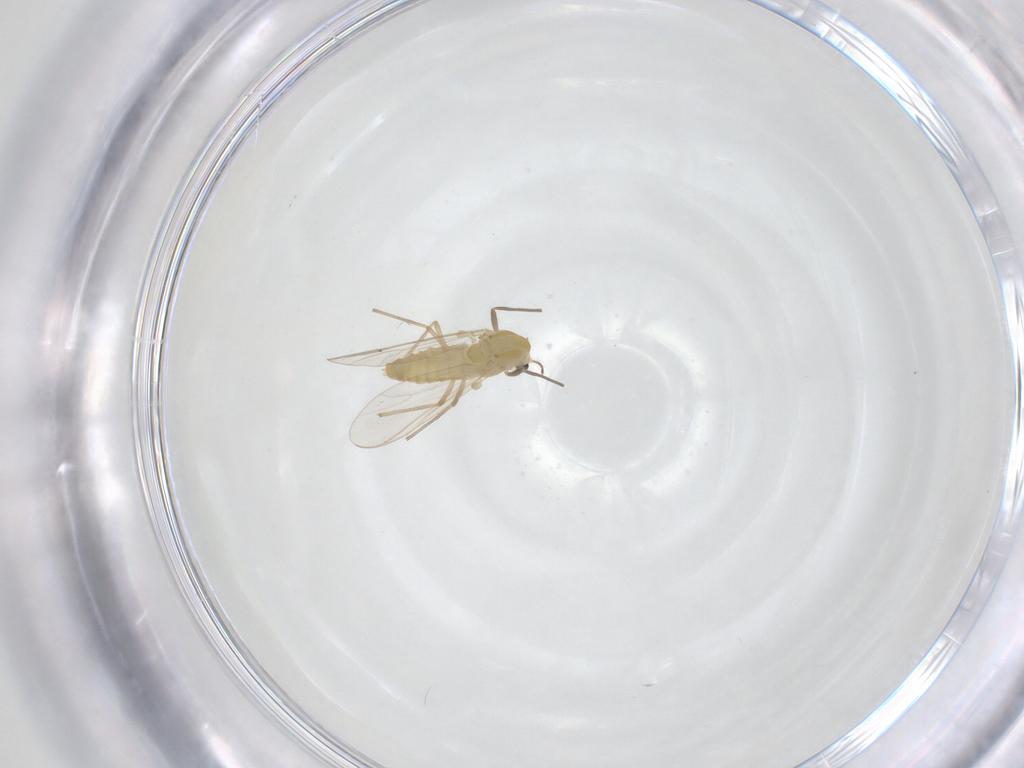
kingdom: Animalia
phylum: Arthropoda
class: Insecta
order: Diptera
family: Chironomidae
